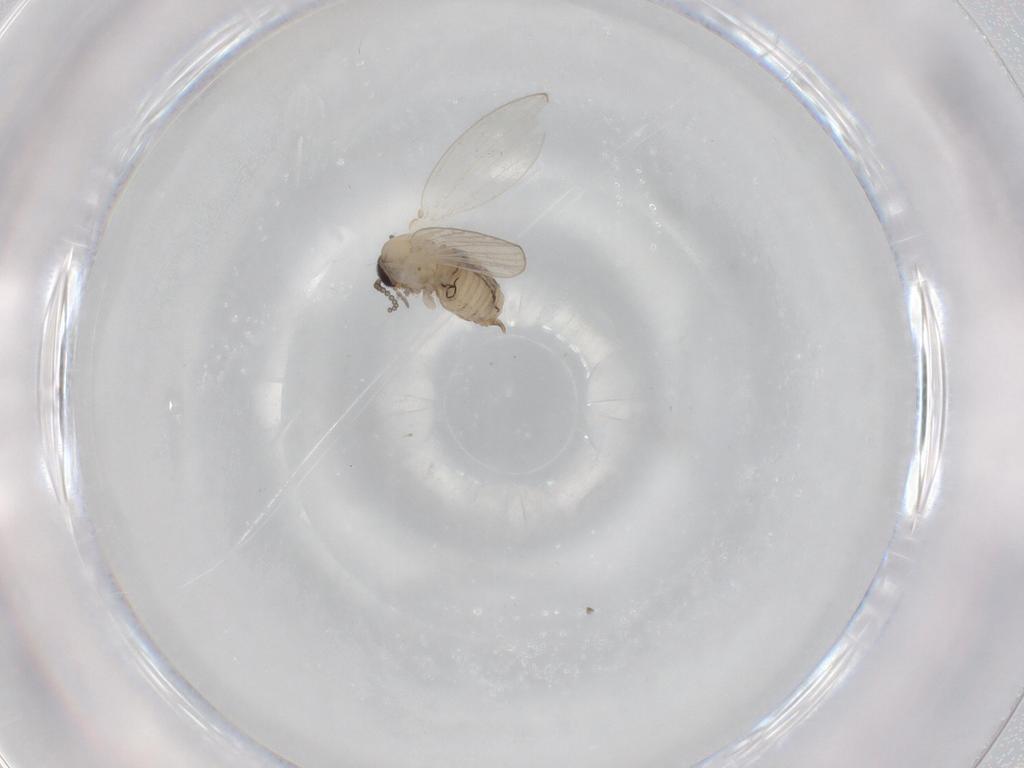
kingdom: Animalia
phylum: Arthropoda
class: Insecta
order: Diptera
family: Psychodidae
